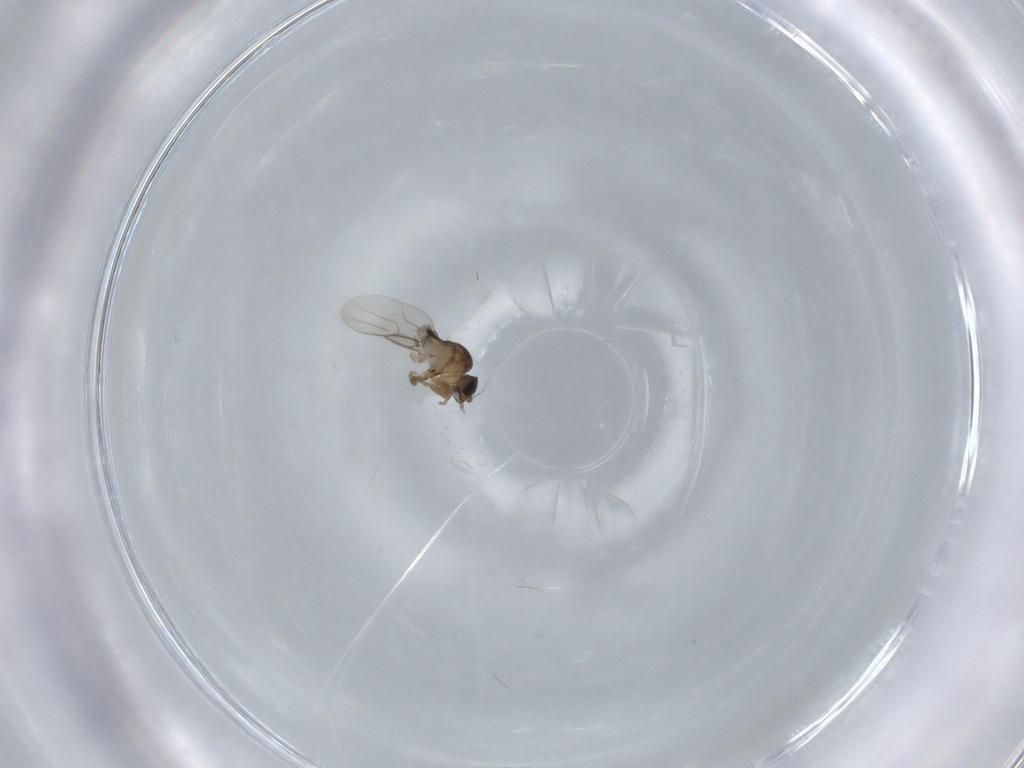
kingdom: Animalia
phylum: Arthropoda
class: Insecta
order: Diptera
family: Phoridae
